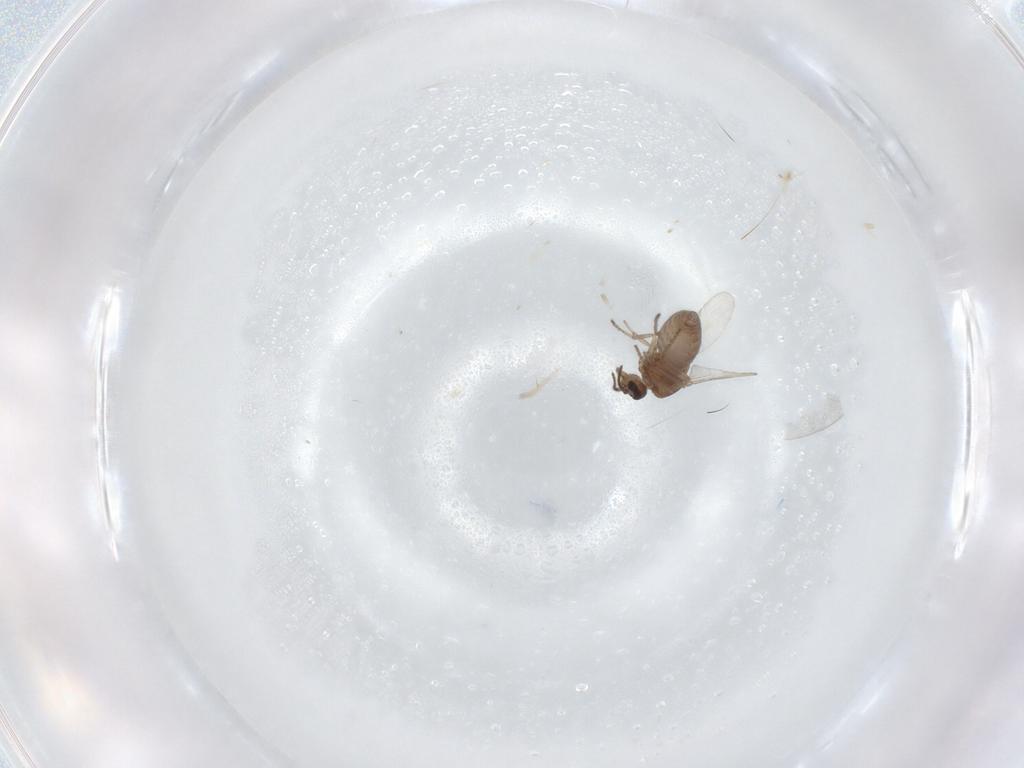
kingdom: Animalia
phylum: Arthropoda
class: Insecta
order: Diptera
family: Ceratopogonidae
